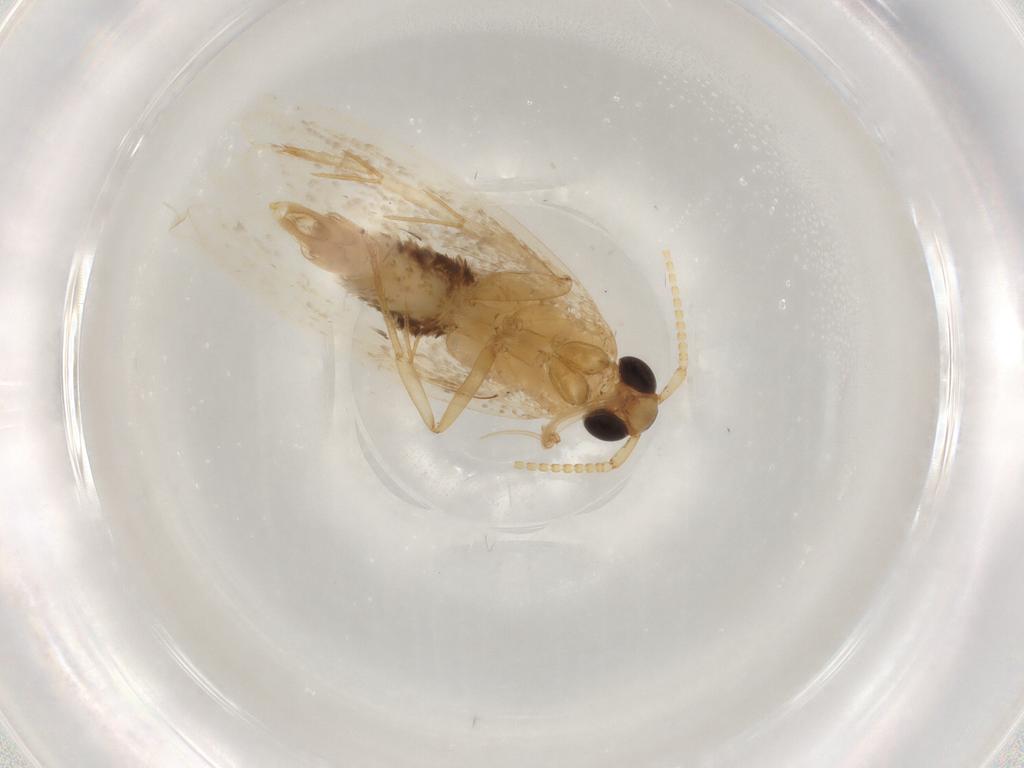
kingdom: Animalia
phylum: Arthropoda
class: Insecta
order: Lepidoptera
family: Lecithoceridae
